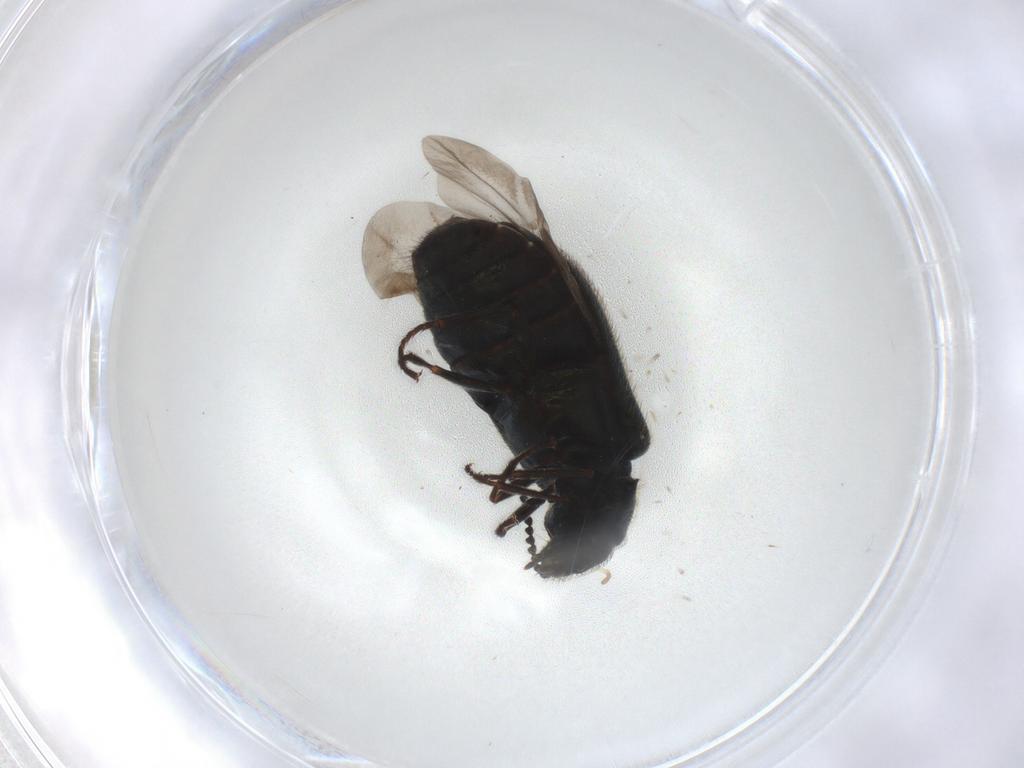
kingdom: Animalia
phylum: Arthropoda
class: Insecta
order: Coleoptera
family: Melyridae
